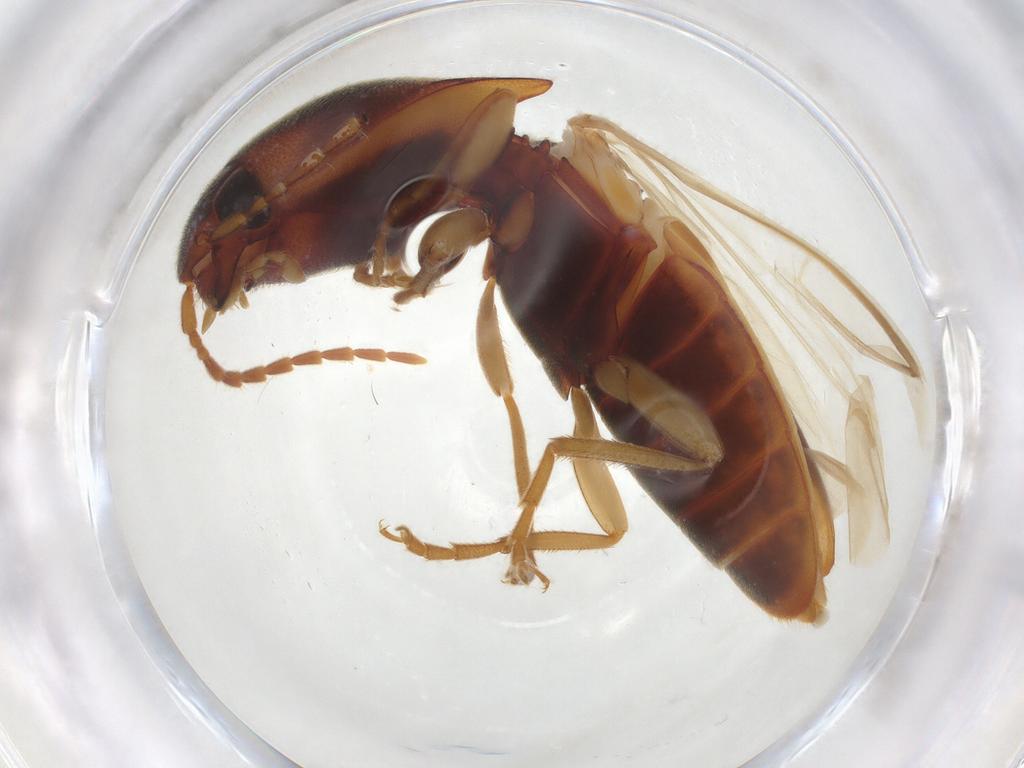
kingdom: Animalia
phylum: Arthropoda
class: Insecta
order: Coleoptera
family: Elateridae
